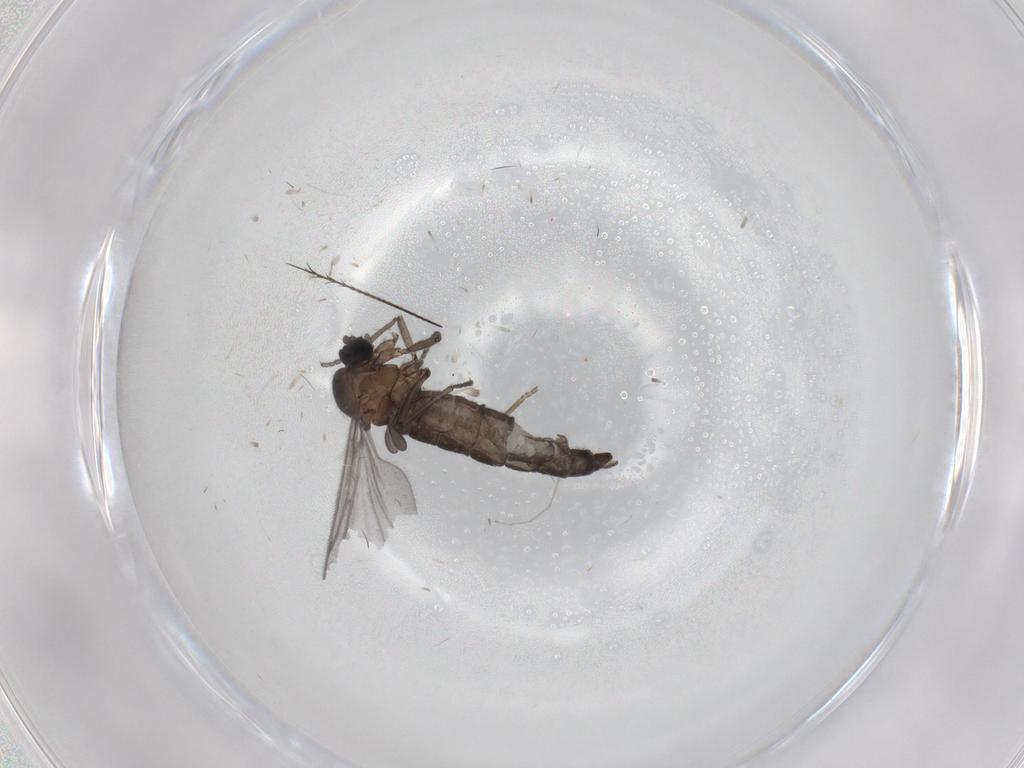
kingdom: Animalia
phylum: Arthropoda
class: Insecta
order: Diptera
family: Sciaridae
